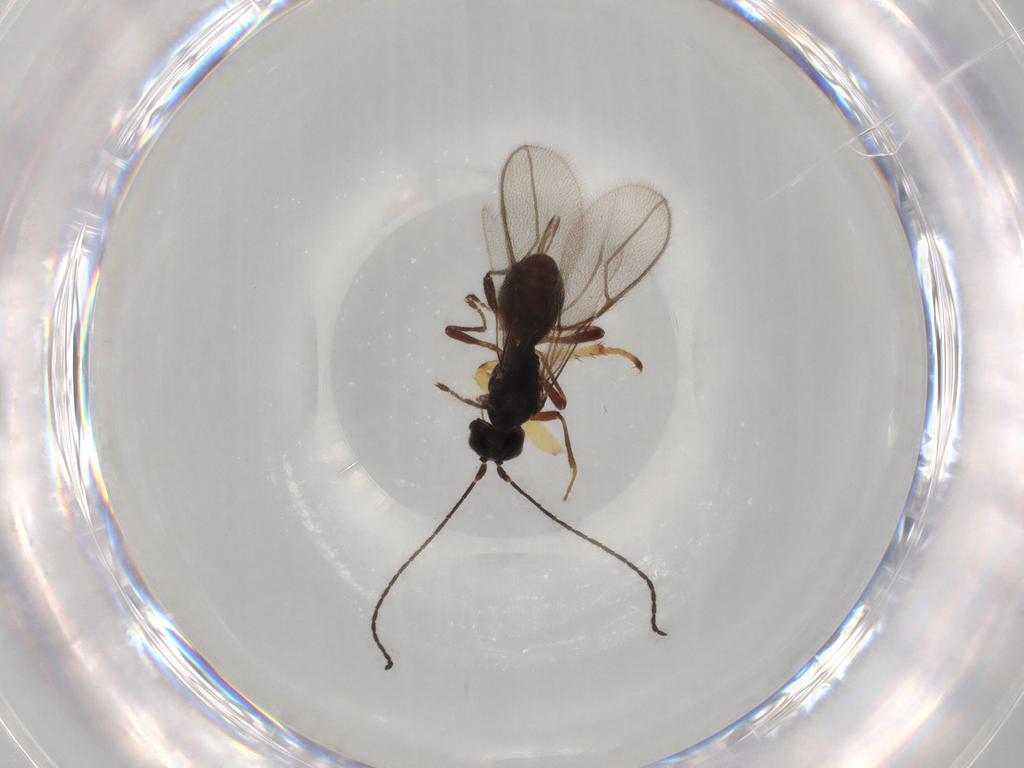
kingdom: Animalia
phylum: Arthropoda
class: Insecta
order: Hymenoptera
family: Braconidae
